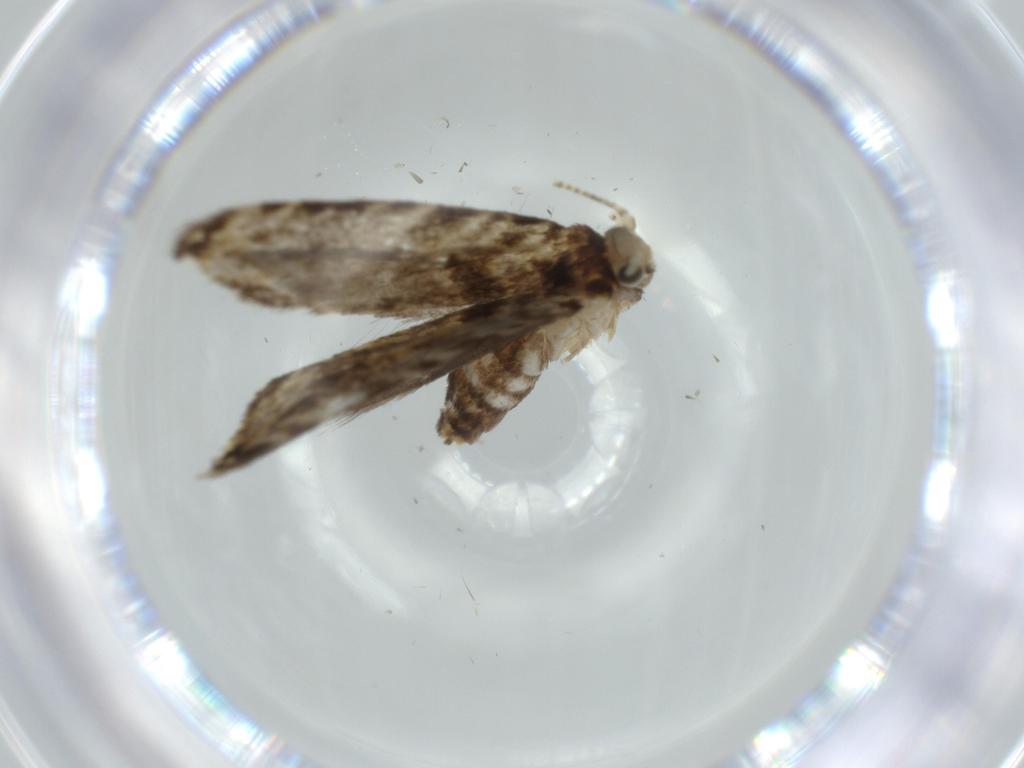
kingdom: Animalia
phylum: Arthropoda
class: Insecta
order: Lepidoptera
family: Tineidae
